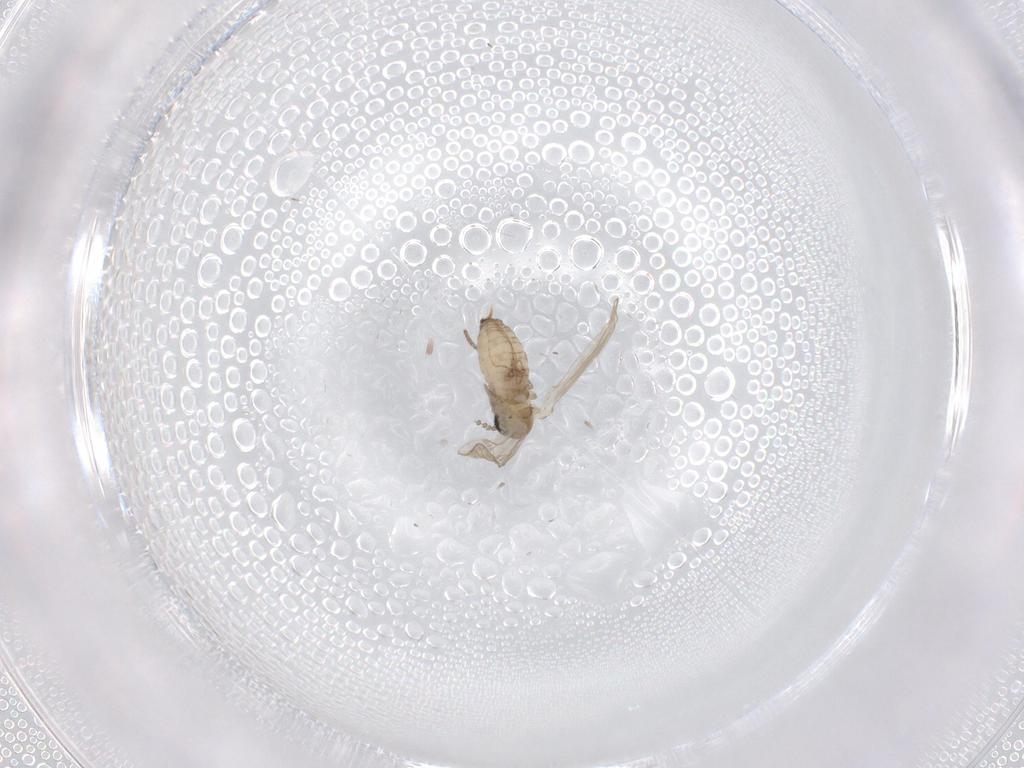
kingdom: Animalia
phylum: Arthropoda
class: Insecta
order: Diptera
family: Psychodidae
